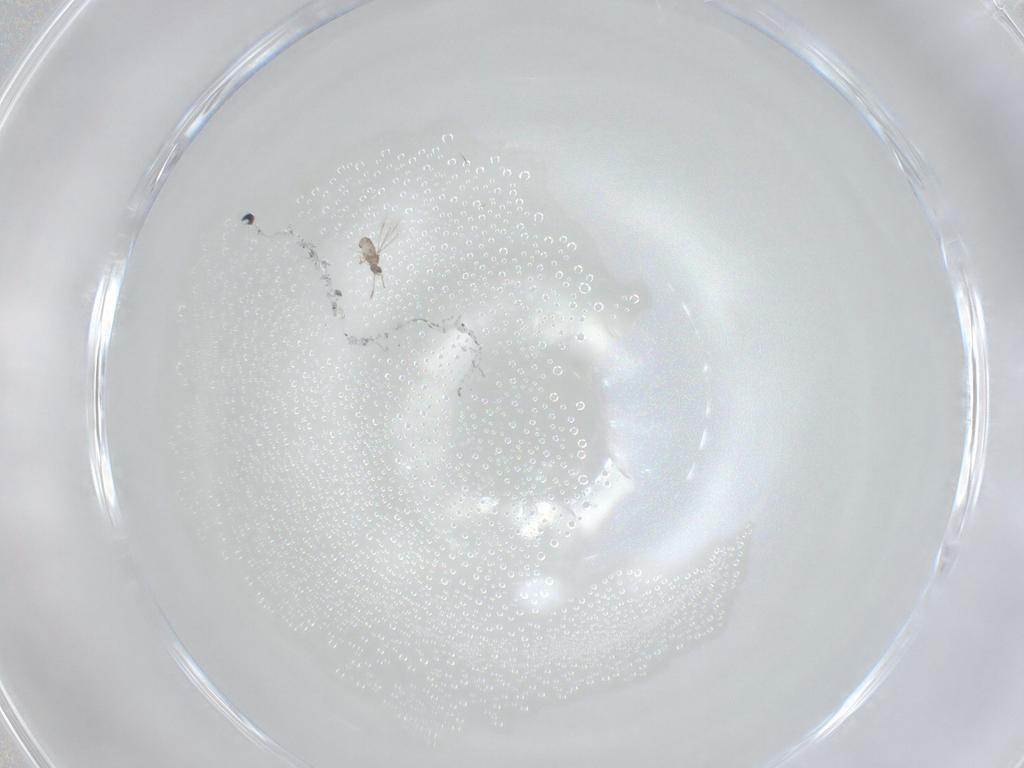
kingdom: Animalia
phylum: Arthropoda
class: Insecta
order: Hymenoptera
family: Mymaridae
